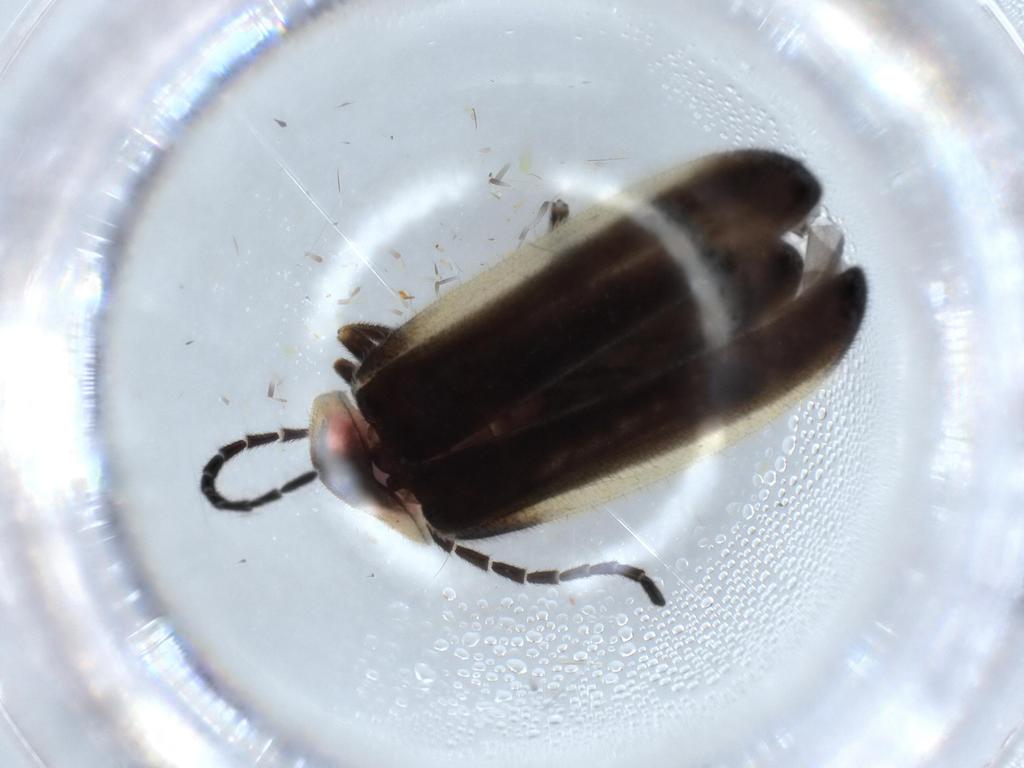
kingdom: Animalia
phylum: Arthropoda
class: Insecta
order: Coleoptera
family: Lampyridae
